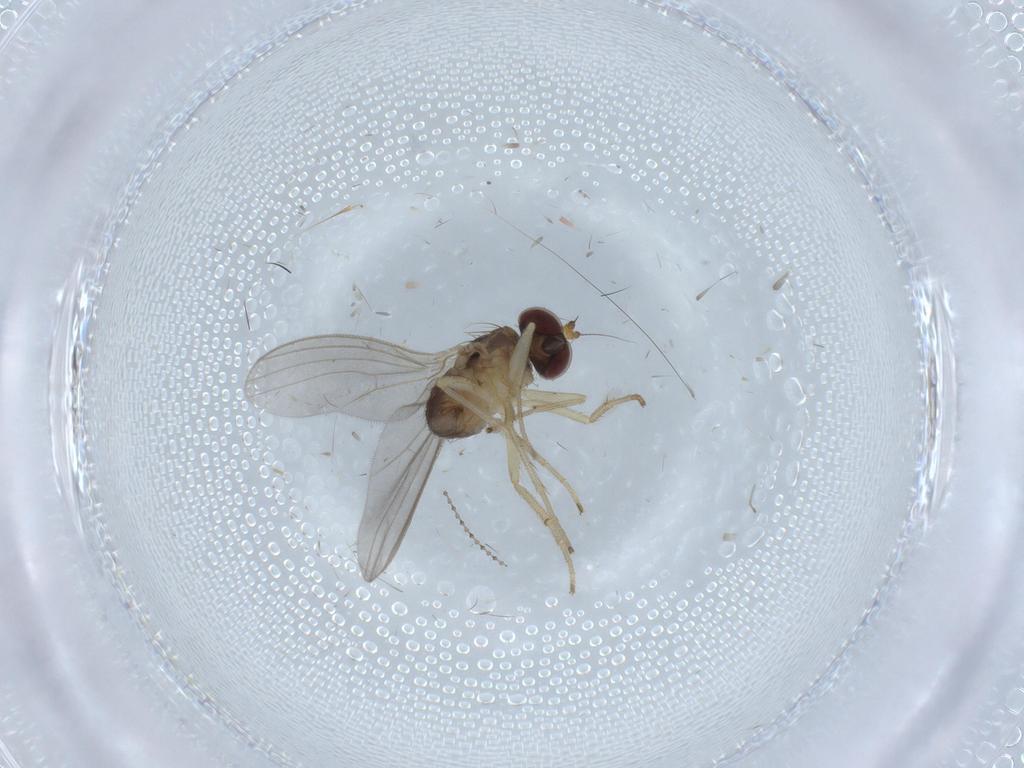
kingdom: Animalia
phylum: Arthropoda
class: Insecta
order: Diptera
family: Dolichopodidae
